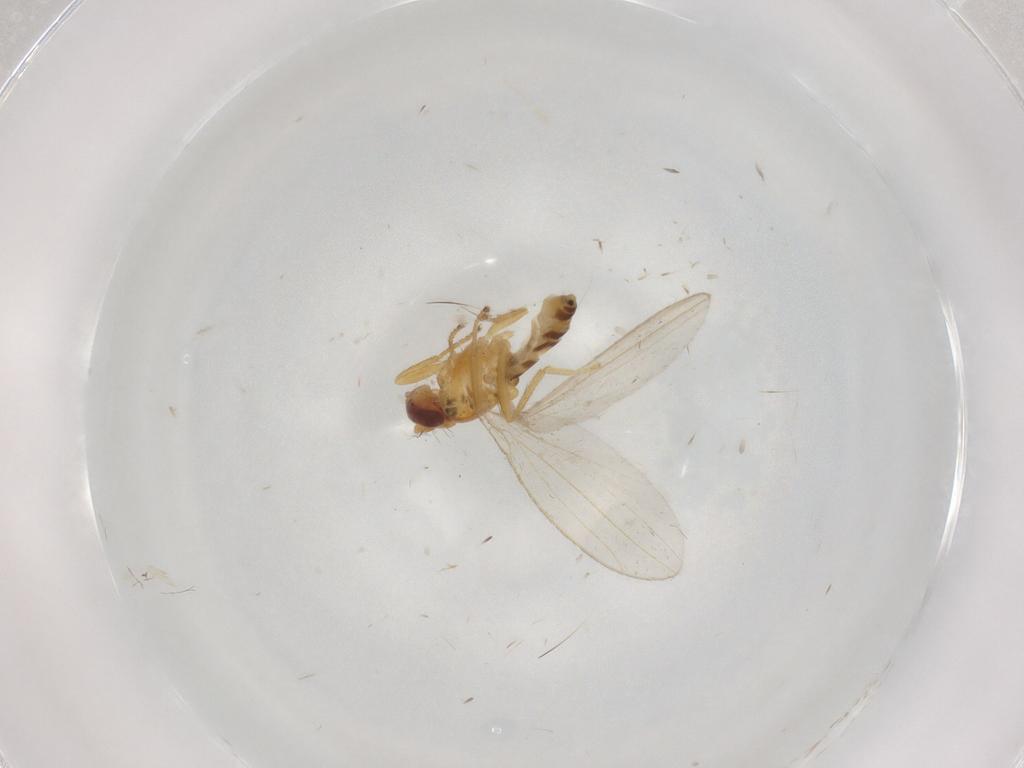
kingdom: Animalia
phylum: Arthropoda
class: Insecta
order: Diptera
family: Periscelididae
